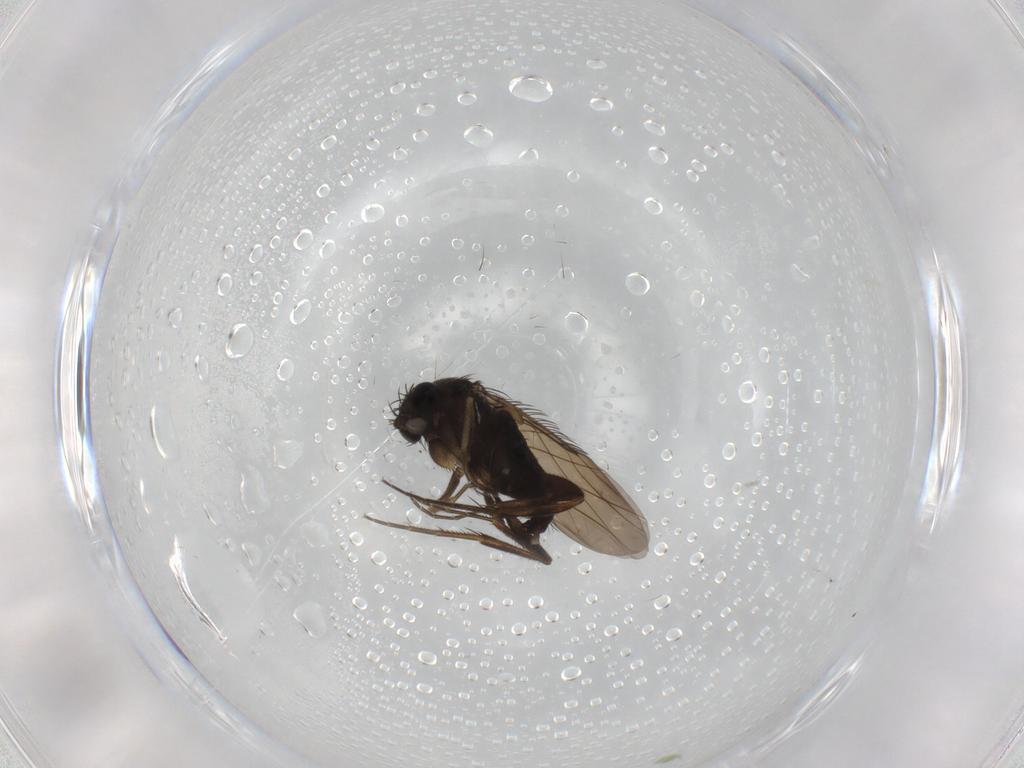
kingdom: Animalia
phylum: Arthropoda
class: Insecta
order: Diptera
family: Phoridae
